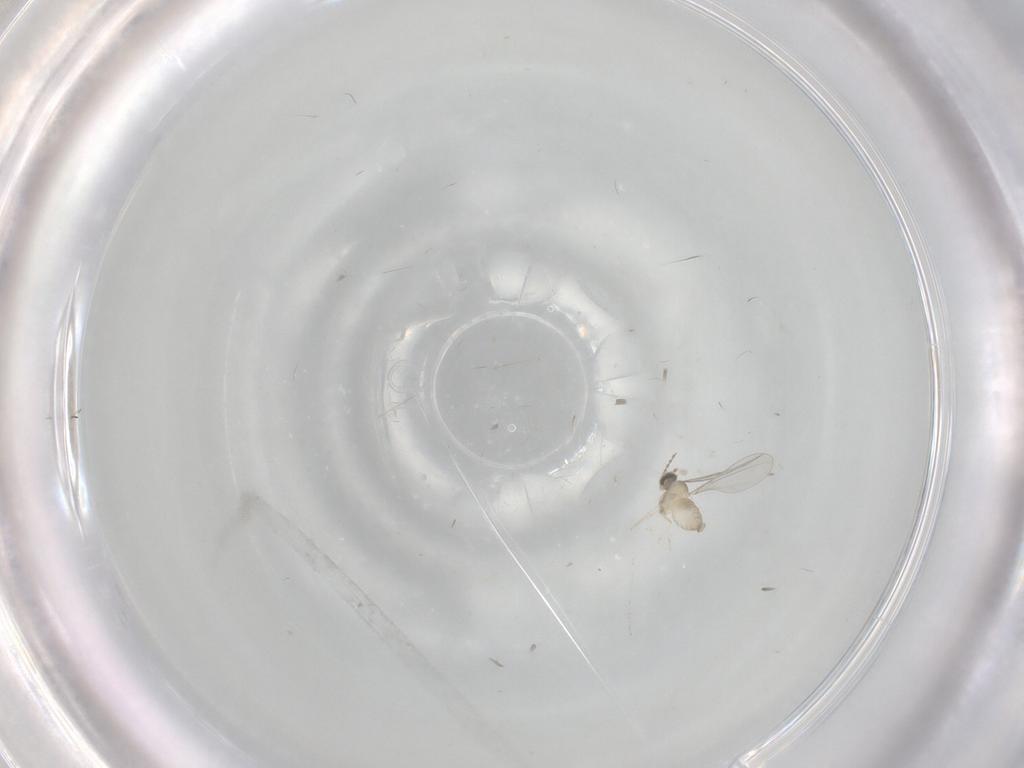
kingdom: Animalia
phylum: Arthropoda
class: Insecta
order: Diptera
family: Cecidomyiidae
